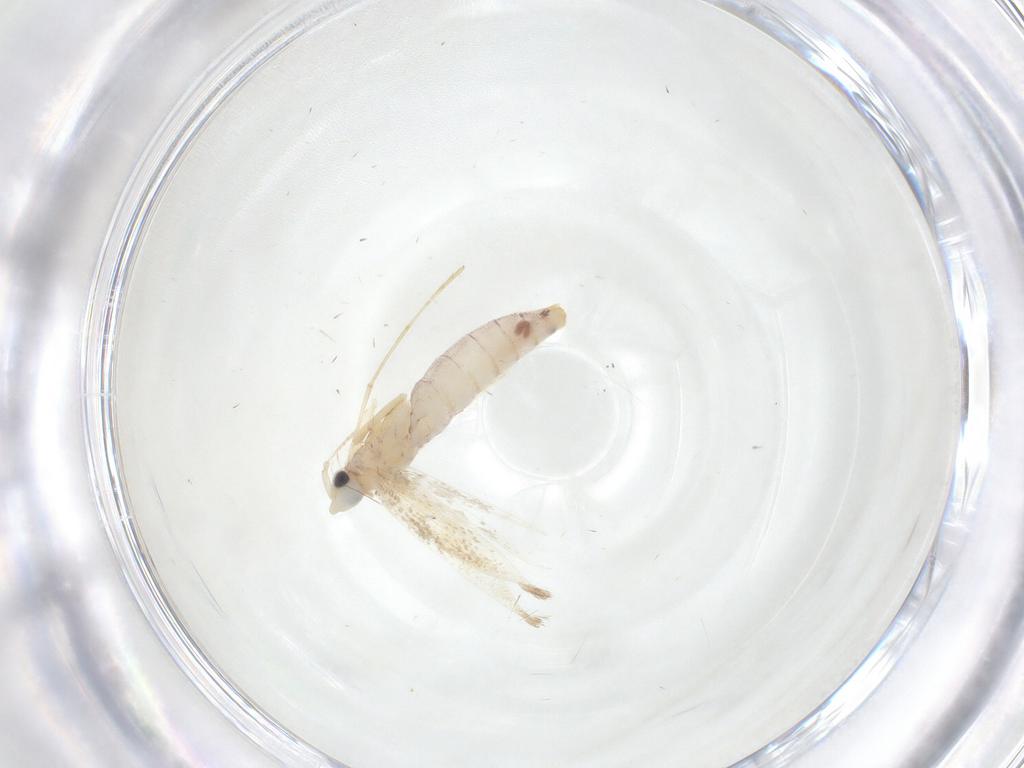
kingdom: Animalia
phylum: Arthropoda
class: Insecta
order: Lepidoptera
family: Tineidae
